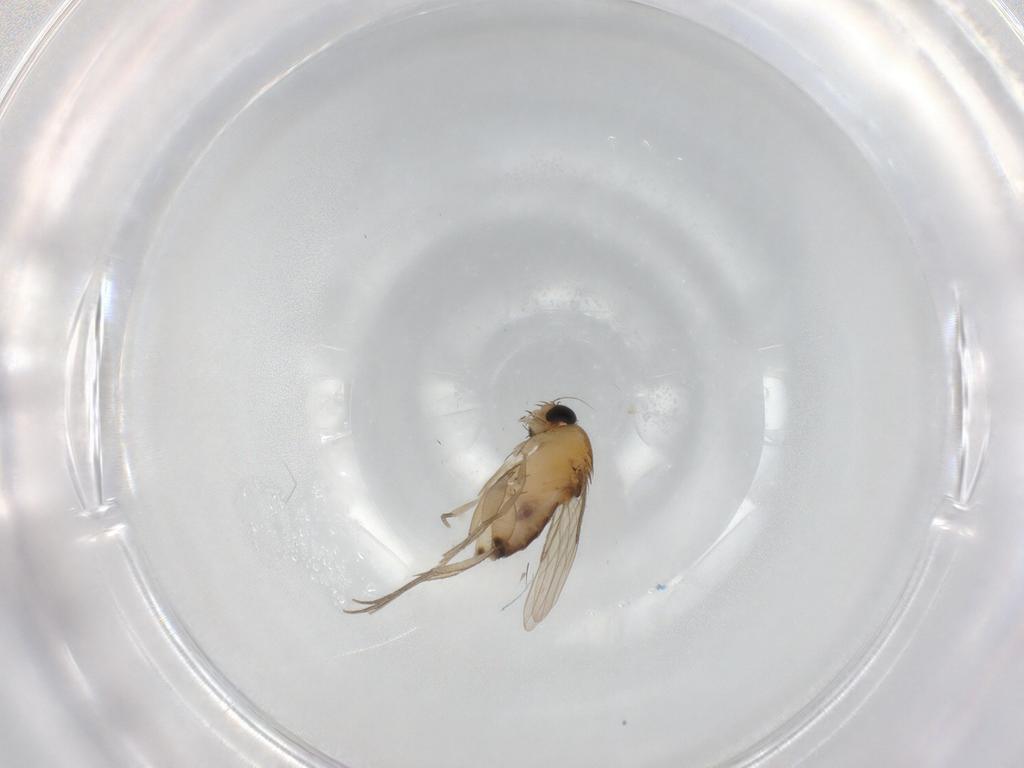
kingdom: Animalia
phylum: Arthropoda
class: Insecta
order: Diptera
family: Phoridae
